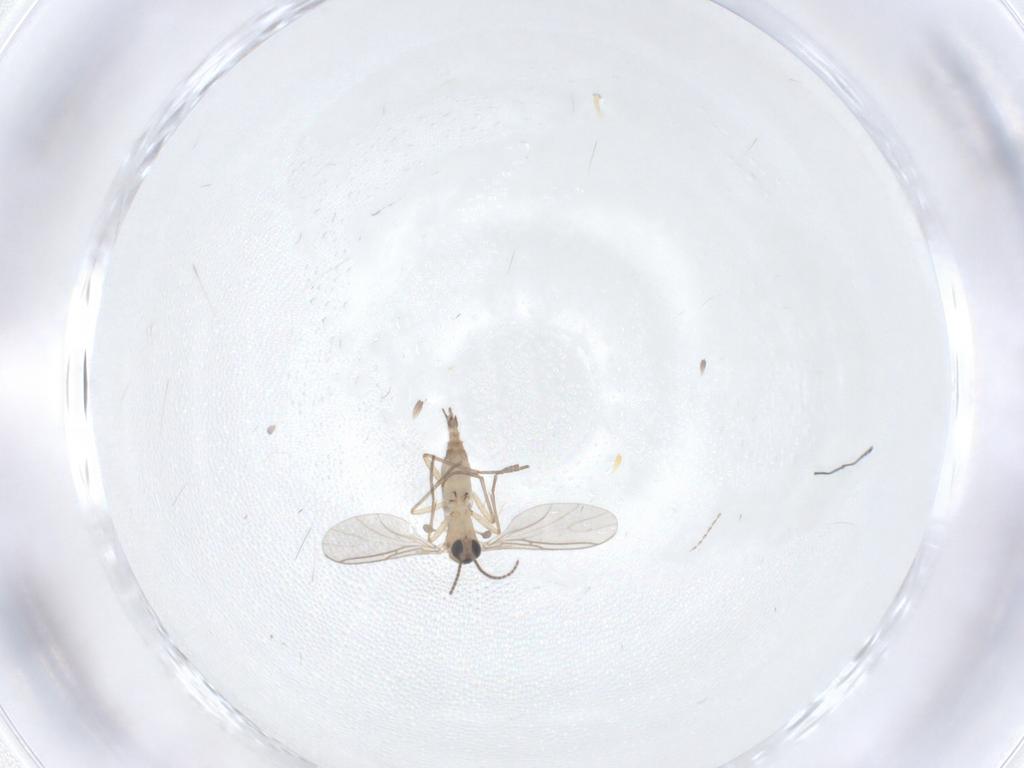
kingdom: Animalia
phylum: Arthropoda
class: Insecta
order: Diptera
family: Sciaridae
